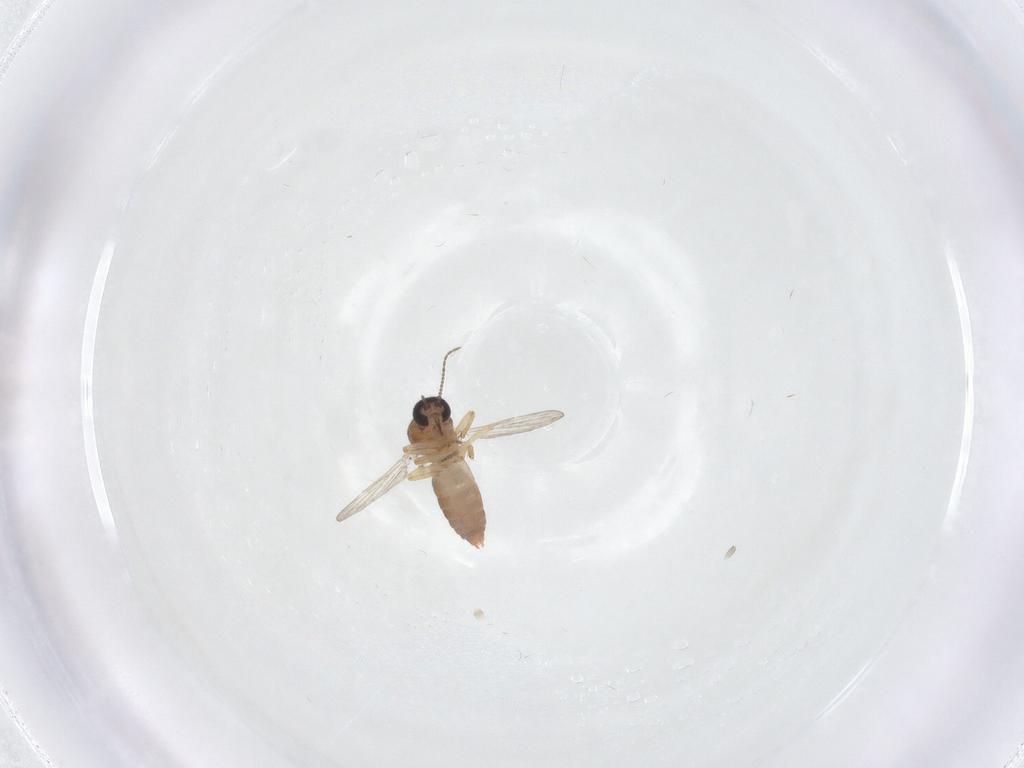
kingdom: Animalia
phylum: Arthropoda
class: Insecta
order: Diptera
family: Ceratopogonidae
